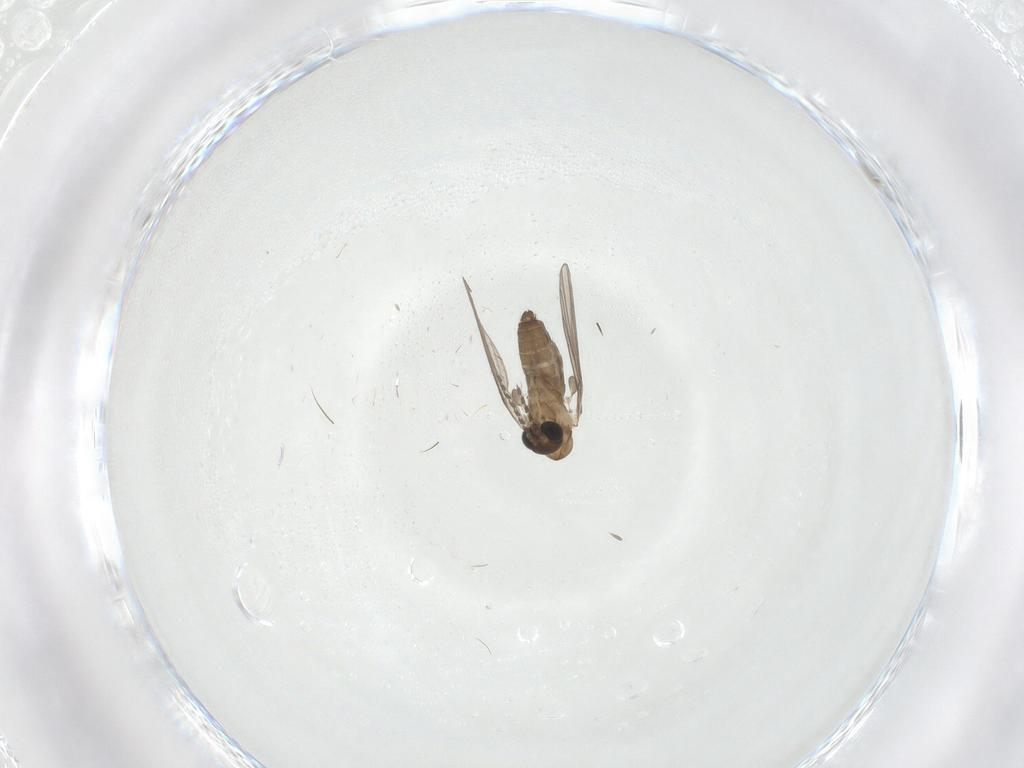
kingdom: Animalia
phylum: Arthropoda
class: Insecta
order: Diptera
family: Cecidomyiidae
